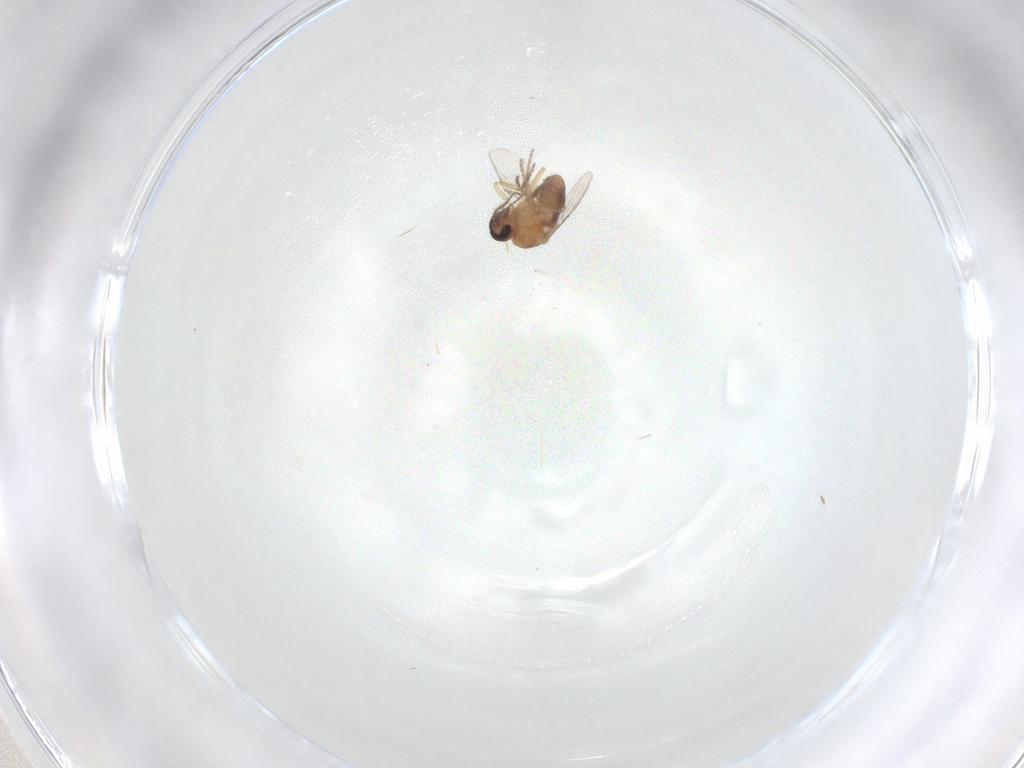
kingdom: Animalia
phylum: Arthropoda
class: Insecta
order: Diptera
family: Ceratopogonidae
